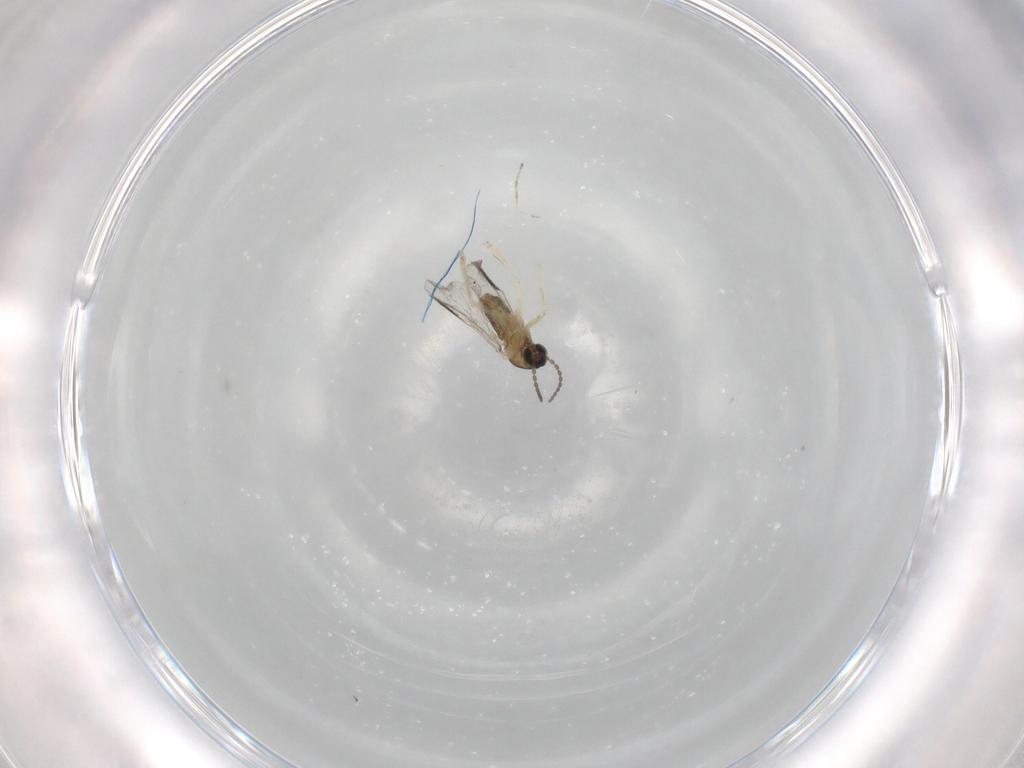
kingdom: Animalia
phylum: Arthropoda
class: Insecta
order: Diptera
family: Cecidomyiidae
